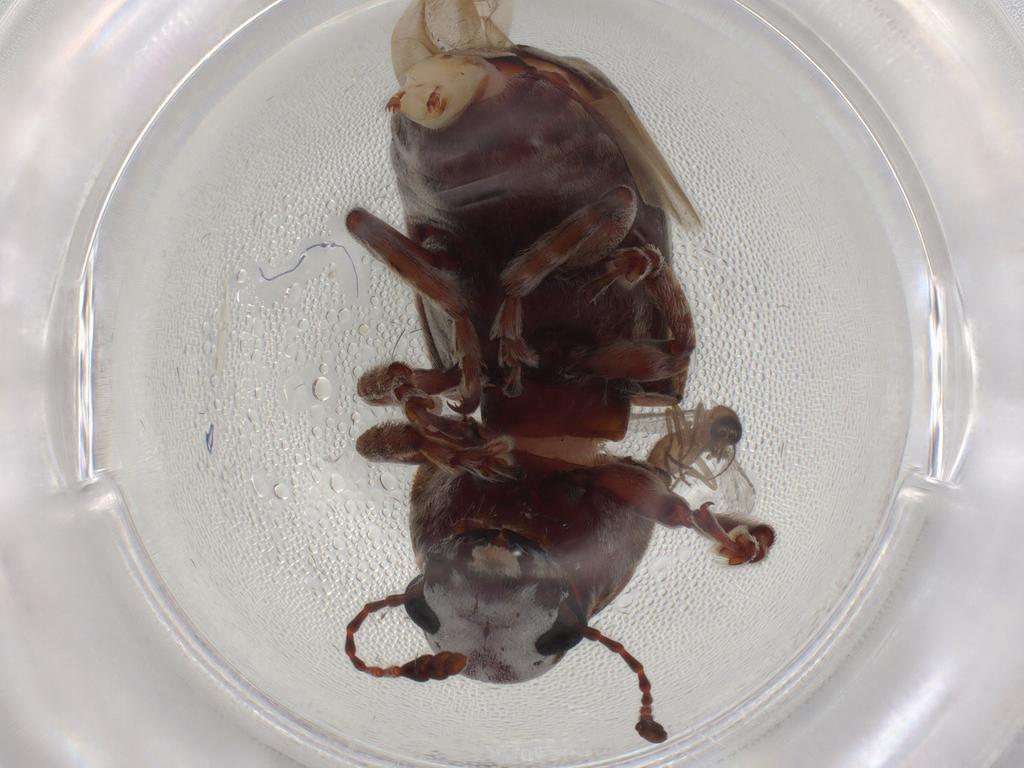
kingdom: Animalia
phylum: Arthropoda
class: Insecta
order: Coleoptera
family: Anthribidae
